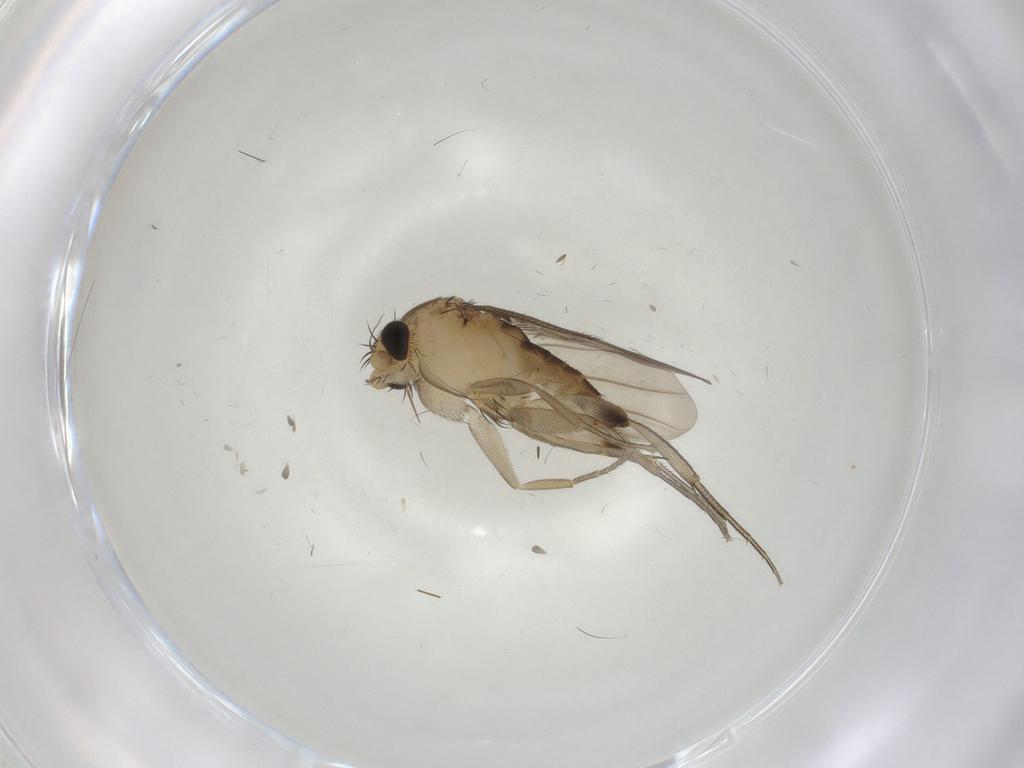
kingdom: Animalia
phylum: Arthropoda
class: Insecta
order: Diptera
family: Phoridae
